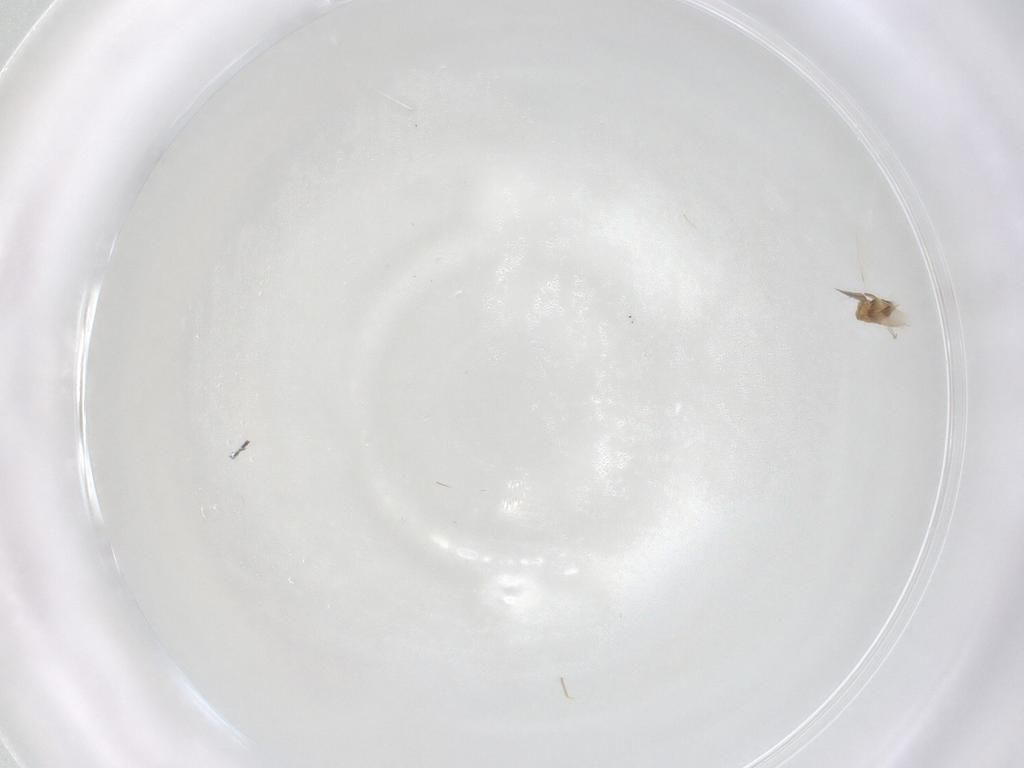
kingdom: Animalia
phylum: Arthropoda
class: Insecta
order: Hymenoptera
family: Aphelinidae
